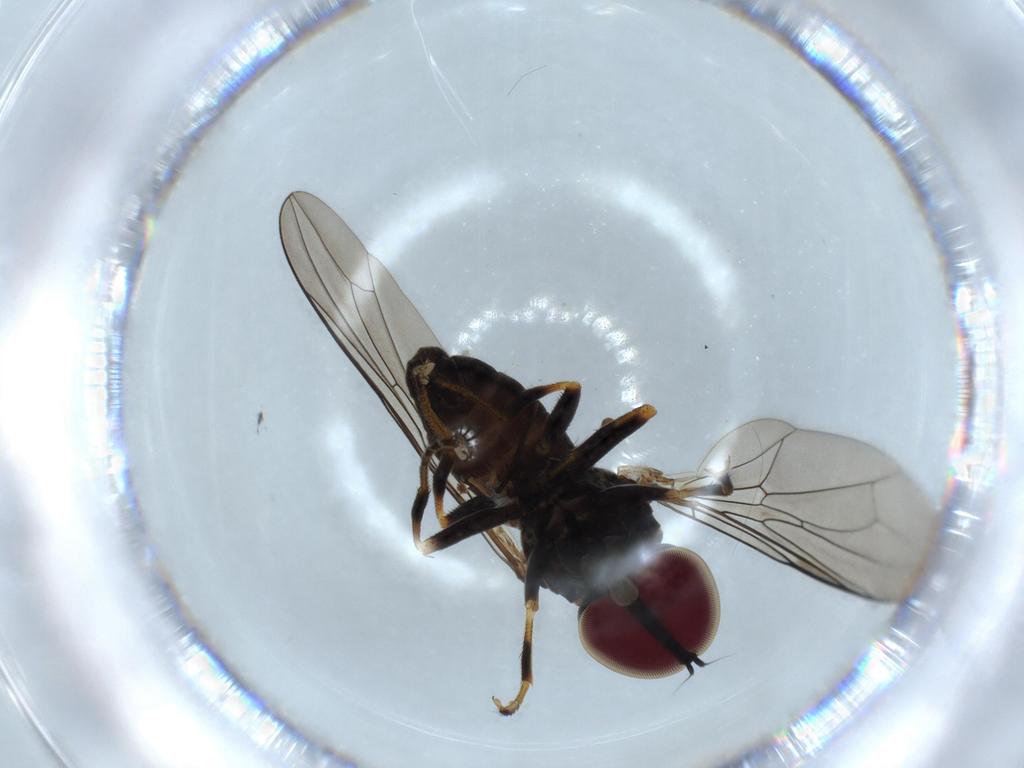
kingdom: Animalia
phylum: Arthropoda
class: Insecta
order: Diptera
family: Pipunculidae
